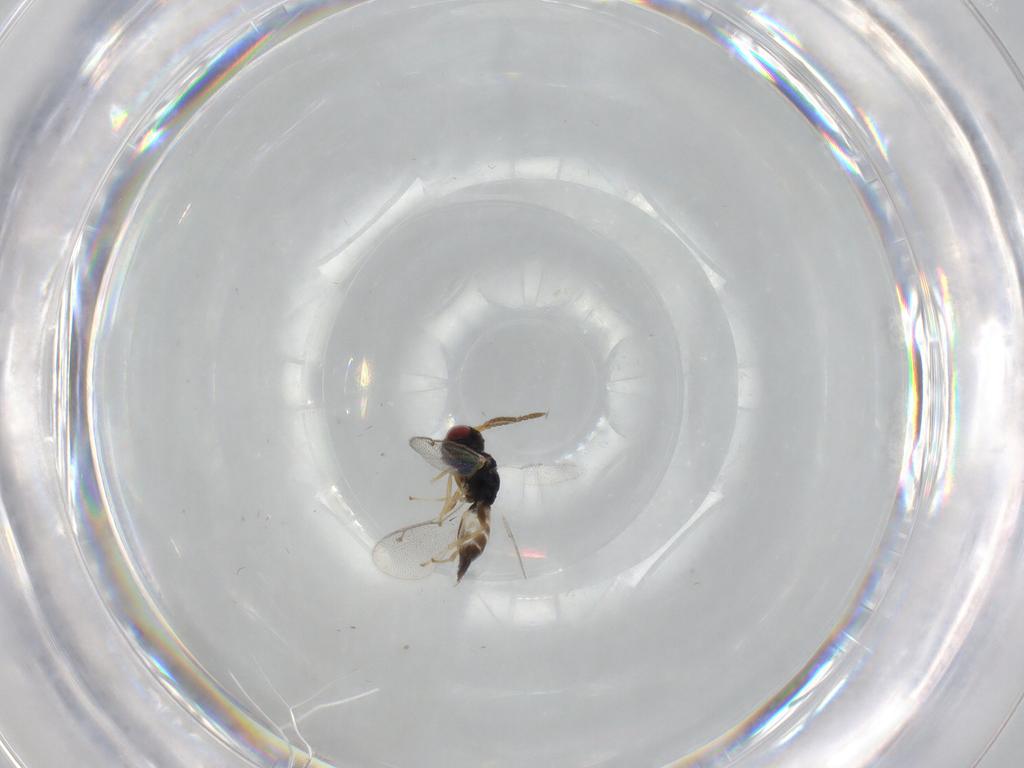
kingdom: Animalia
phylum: Arthropoda
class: Insecta
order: Hymenoptera
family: Pteromalidae
